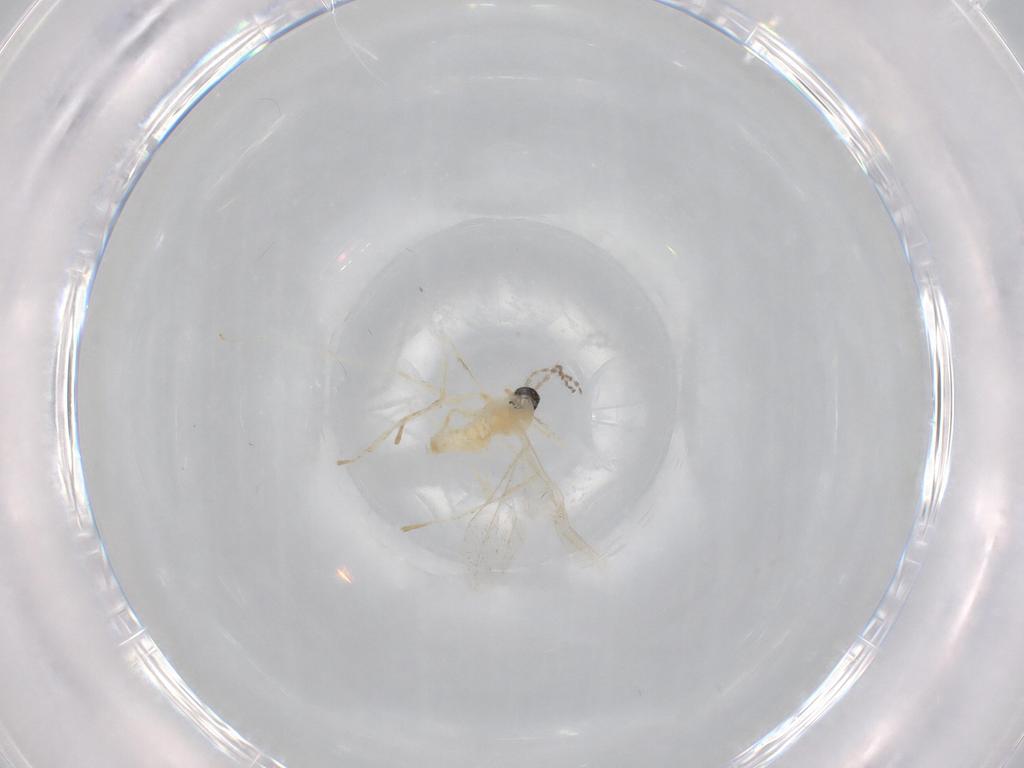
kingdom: Animalia
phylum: Arthropoda
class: Insecta
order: Diptera
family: Cecidomyiidae
